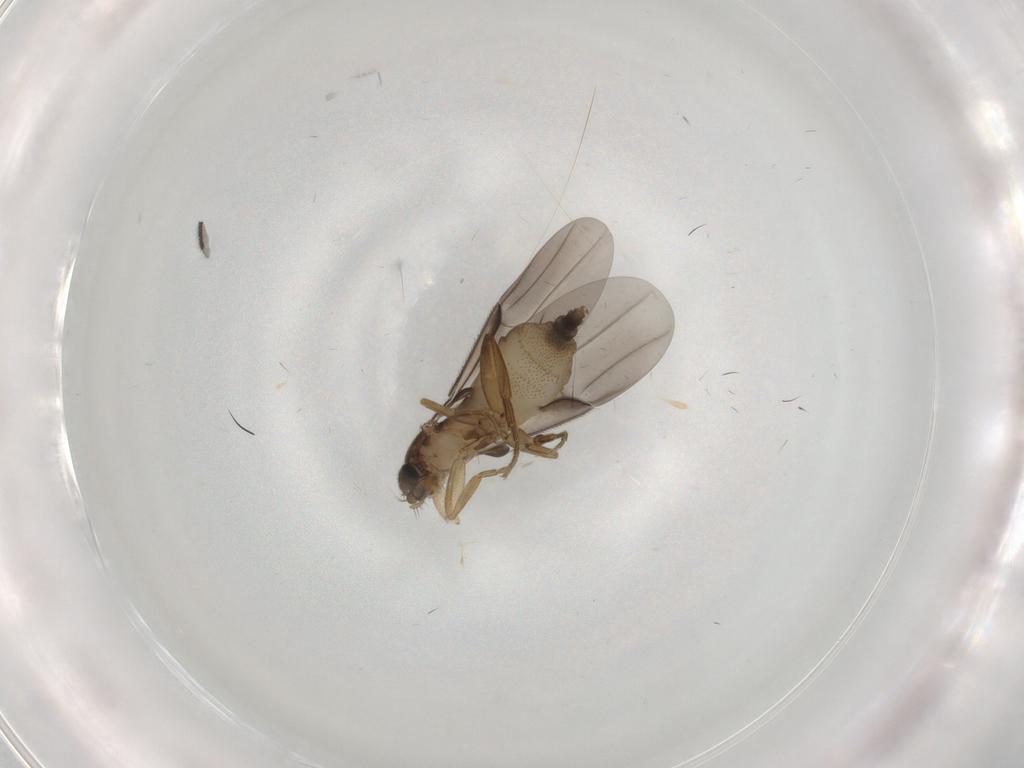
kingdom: Animalia
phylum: Arthropoda
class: Insecta
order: Diptera
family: Phoridae
